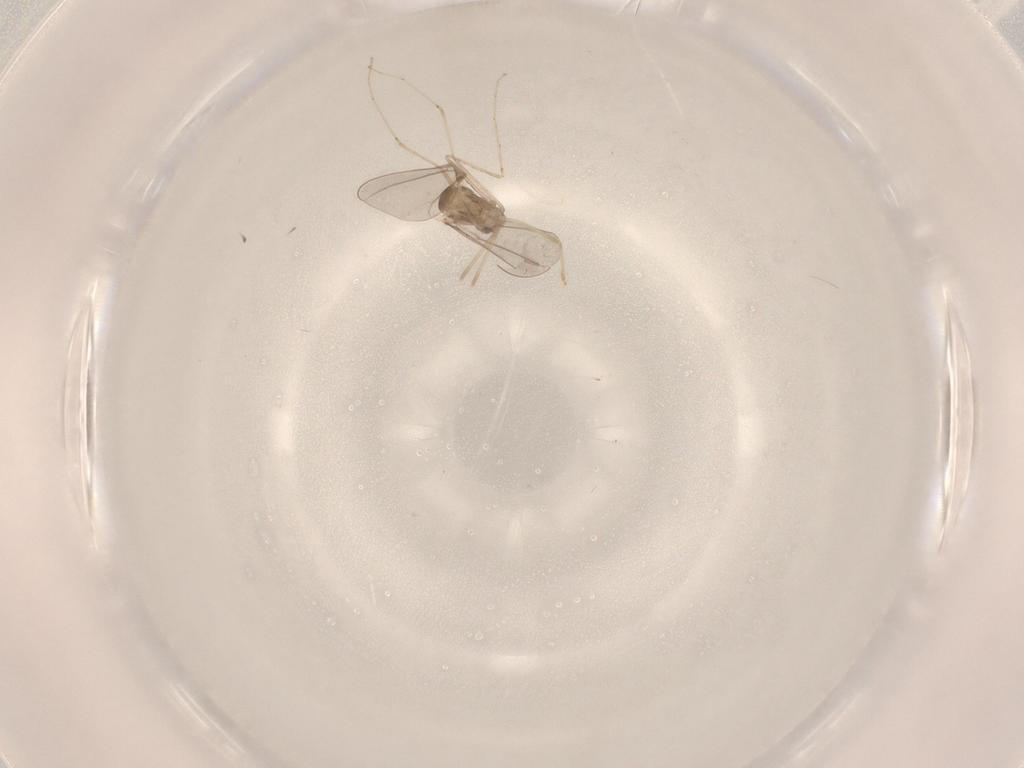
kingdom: Animalia
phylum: Arthropoda
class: Insecta
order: Diptera
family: Cecidomyiidae
